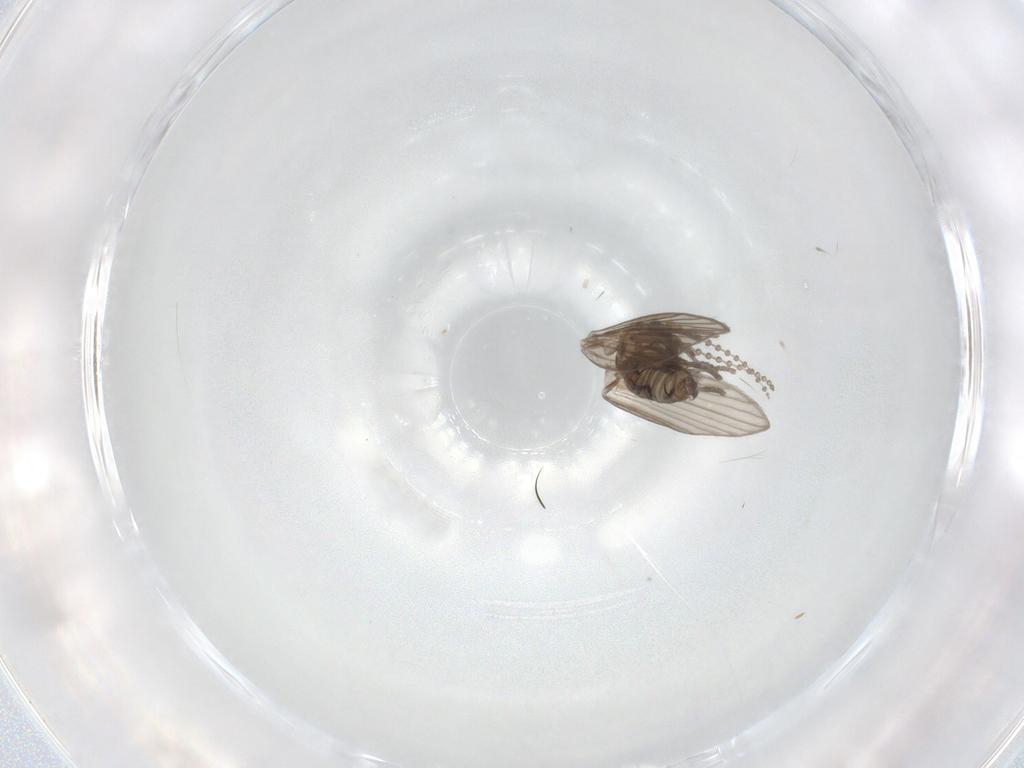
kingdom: Animalia
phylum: Arthropoda
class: Insecta
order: Diptera
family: Psychodidae
